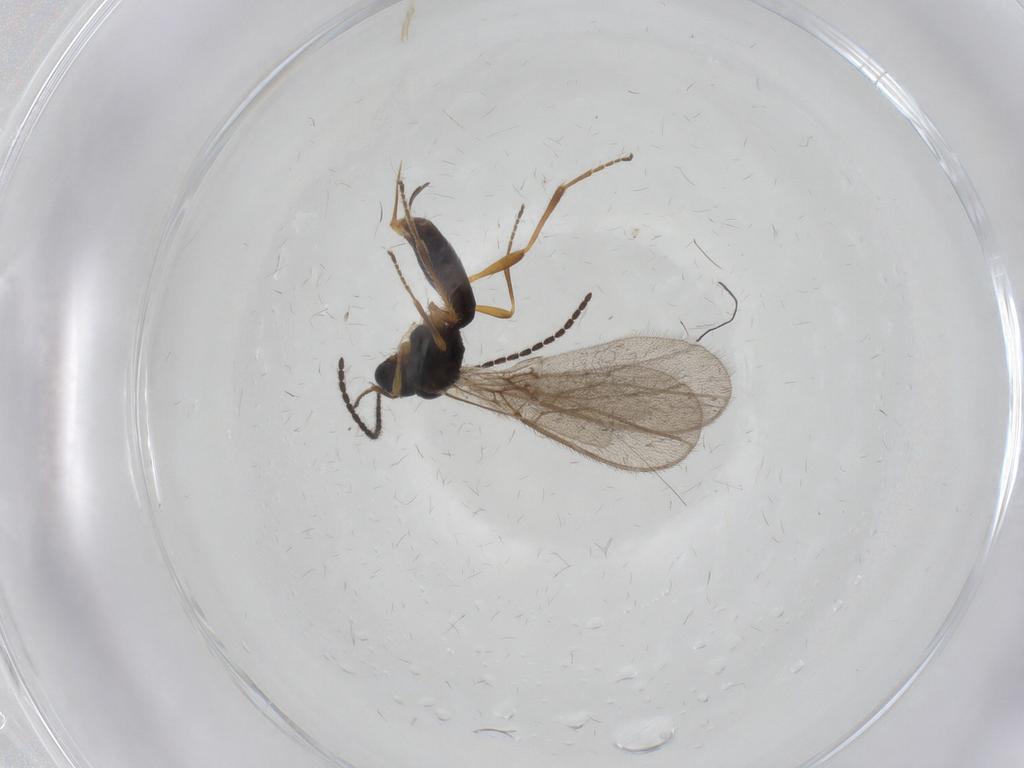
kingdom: Animalia
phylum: Arthropoda
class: Insecta
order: Hymenoptera
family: Braconidae
